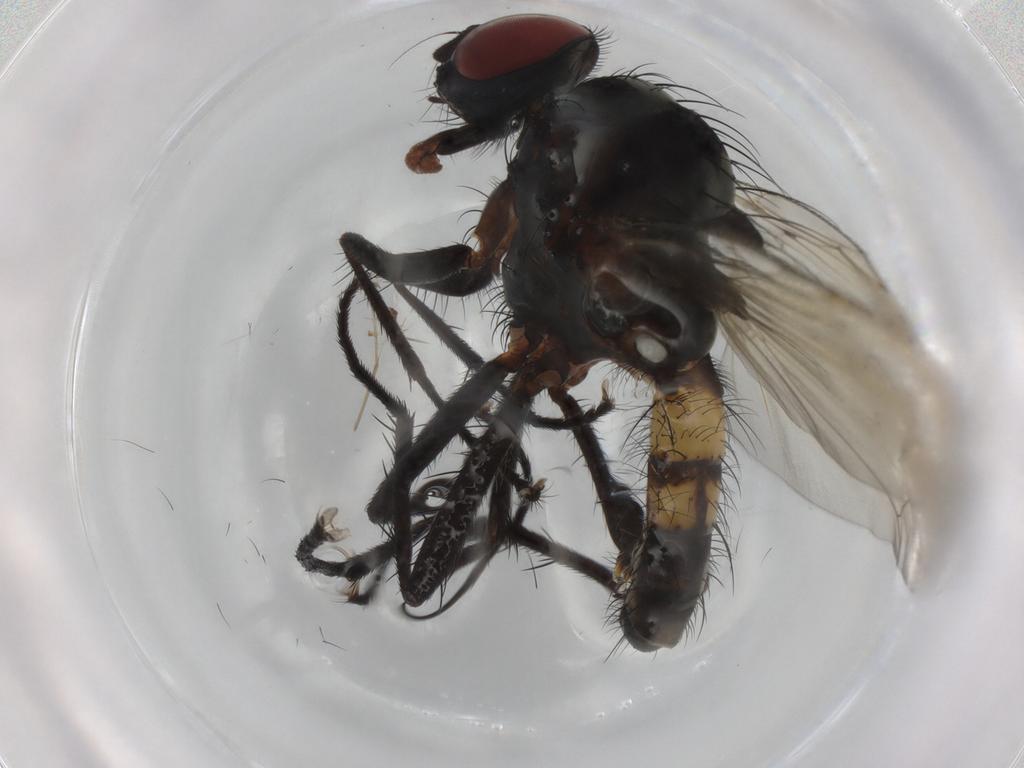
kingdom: Animalia
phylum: Arthropoda
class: Insecta
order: Diptera
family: Anthomyiidae
